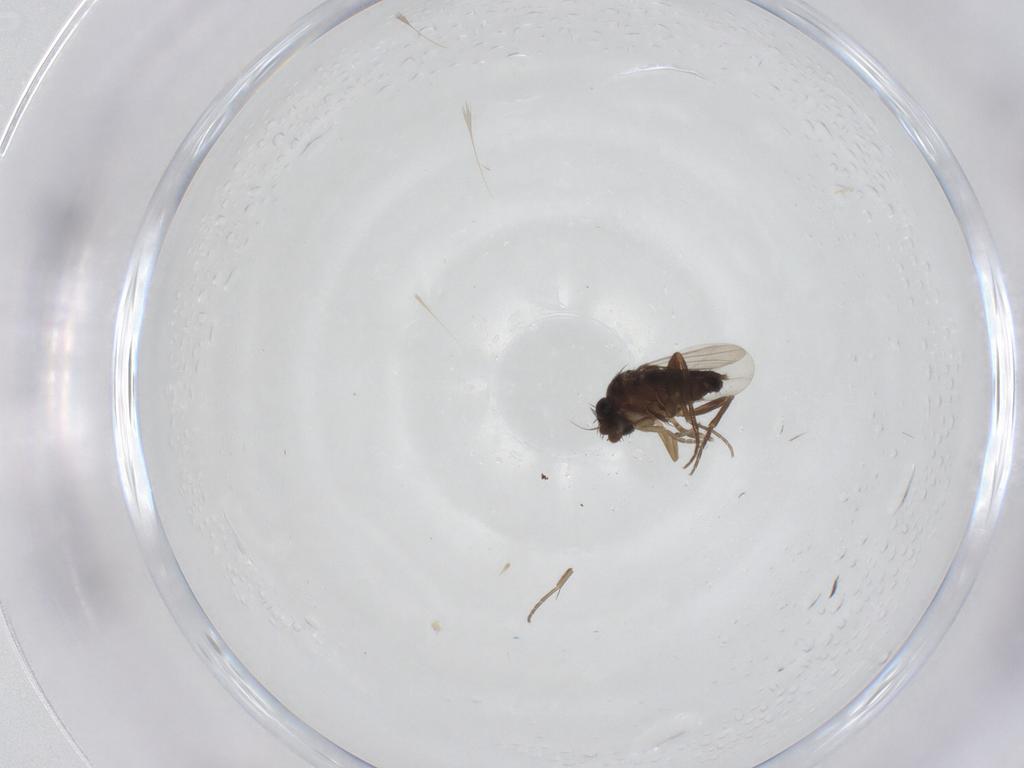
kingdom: Animalia
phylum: Arthropoda
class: Insecta
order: Diptera
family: Phoridae
